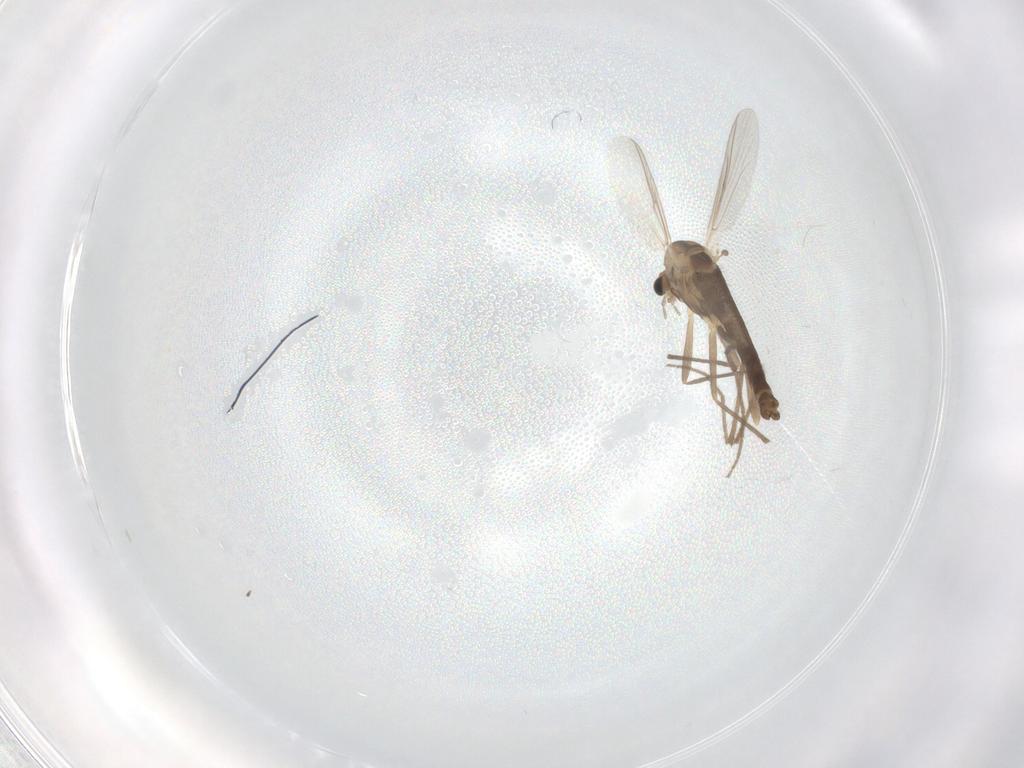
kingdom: Animalia
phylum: Arthropoda
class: Insecta
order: Diptera
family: Chironomidae
